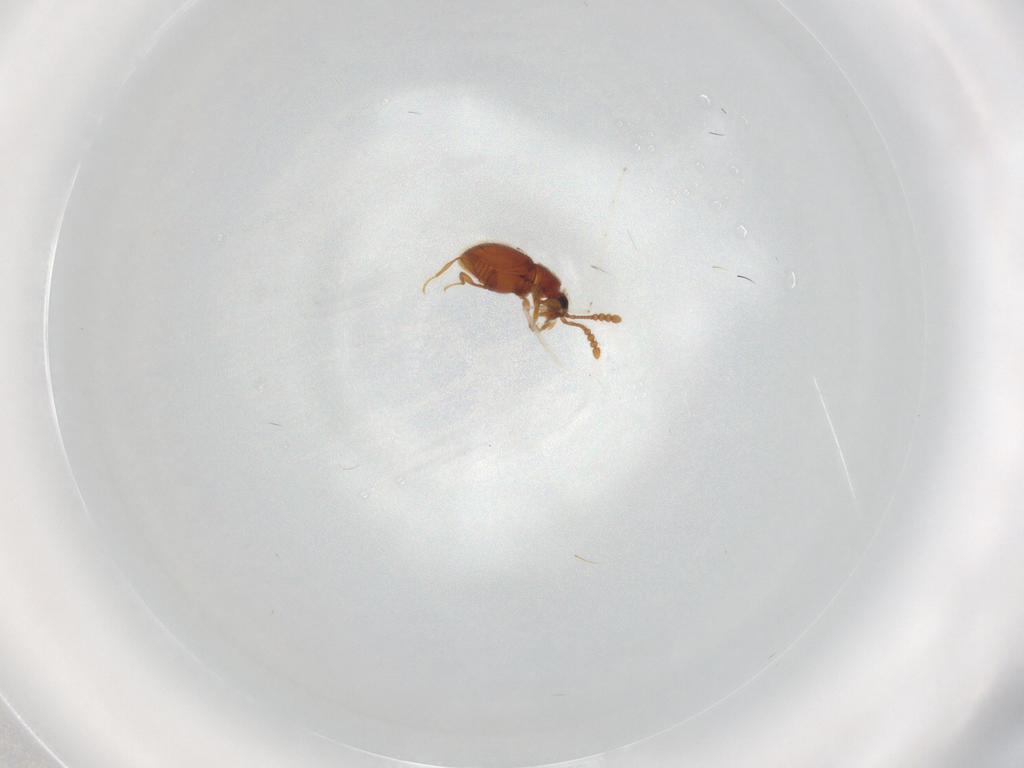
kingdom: Animalia
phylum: Arthropoda
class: Insecta
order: Coleoptera
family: Staphylinidae
